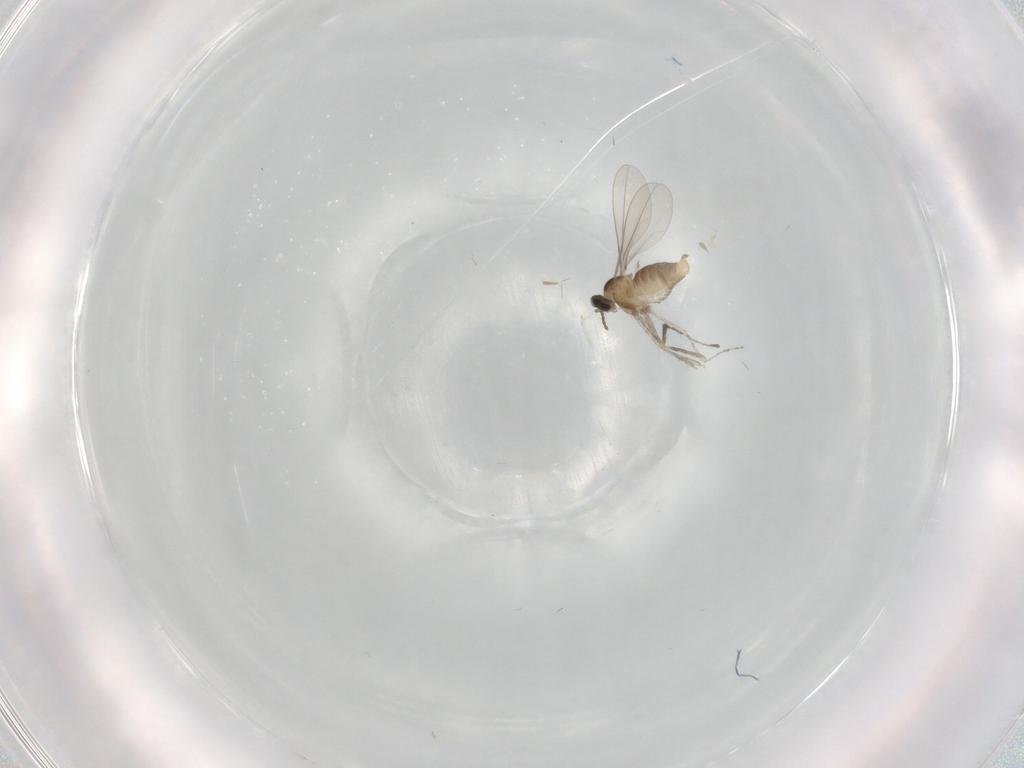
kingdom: Animalia
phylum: Arthropoda
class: Insecta
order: Diptera
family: Cecidomyiidae
